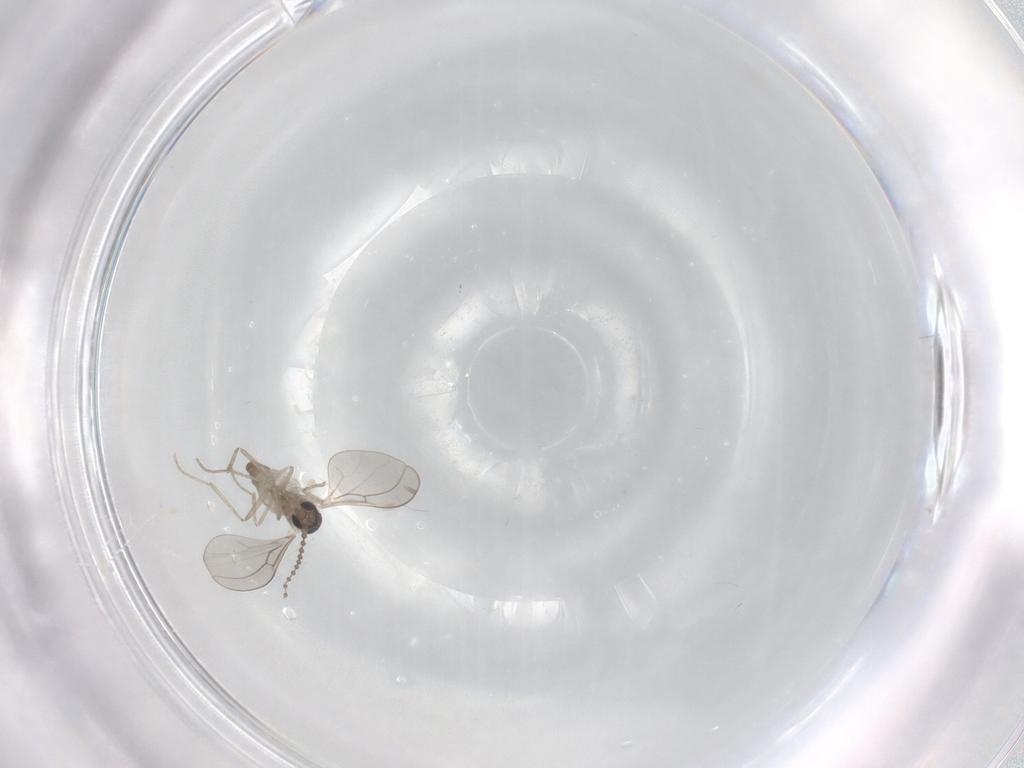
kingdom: Animalia
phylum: Arthropoda
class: Insecta
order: Diptera
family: Cecidomyiidae
